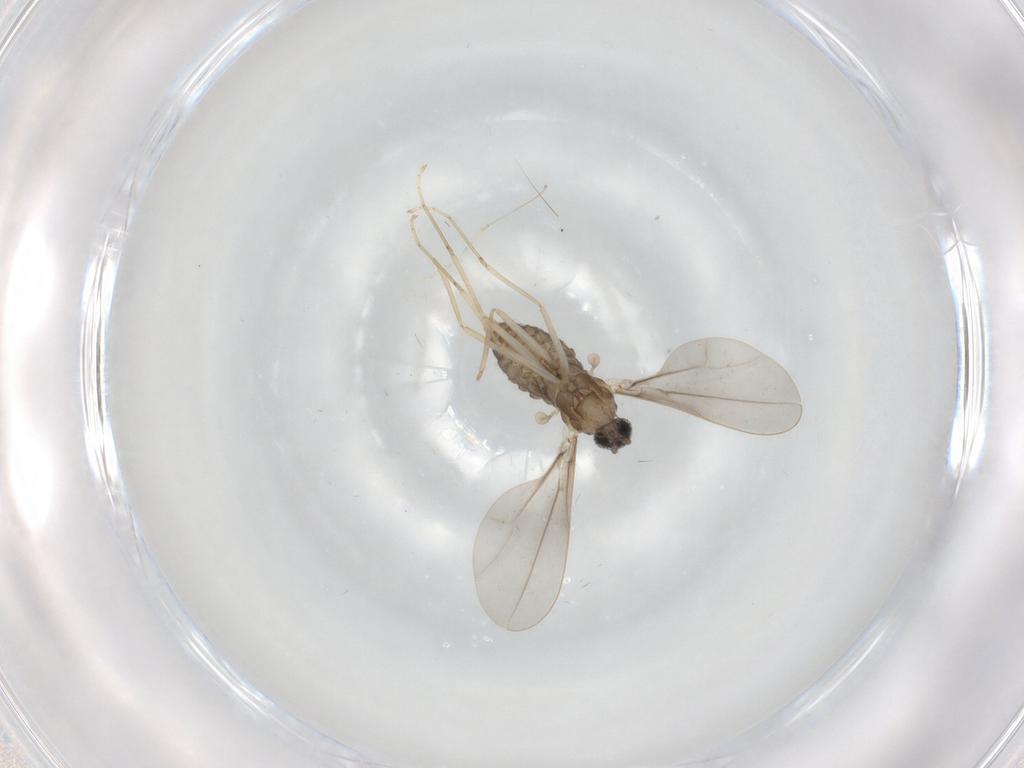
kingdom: Animalia
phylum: Arthropoda
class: Insecta
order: Diptera
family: Cecidomyiidae
